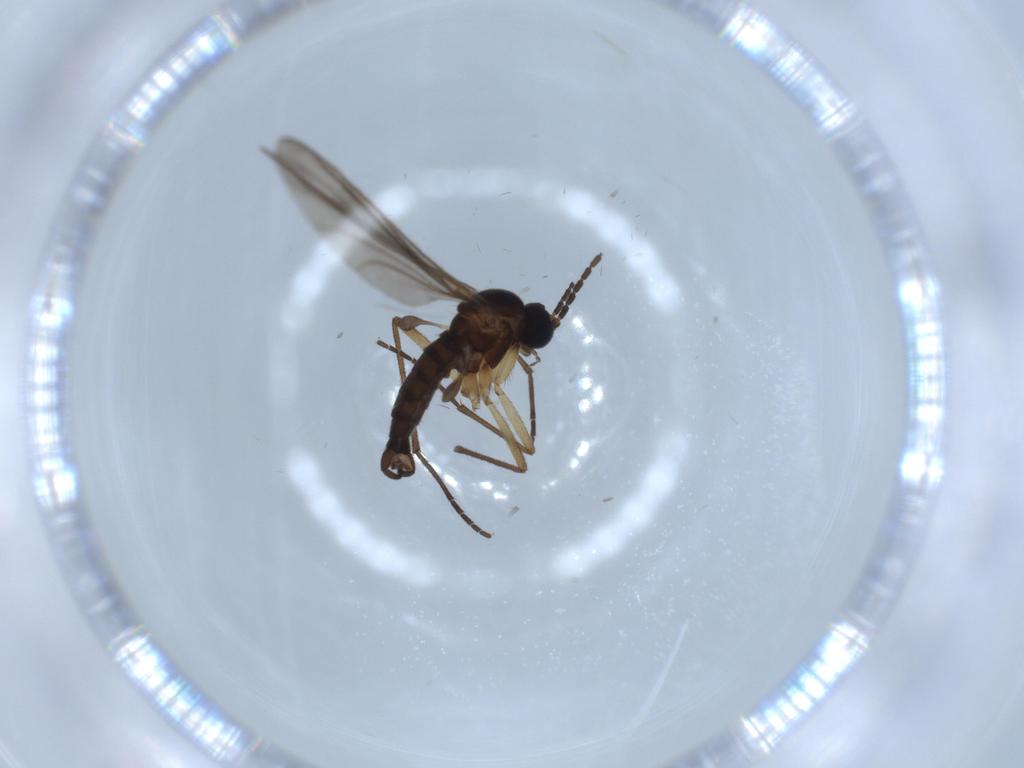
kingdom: Animalia
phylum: Arthropoda
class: Insecta
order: Diptera
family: Sciaridae
